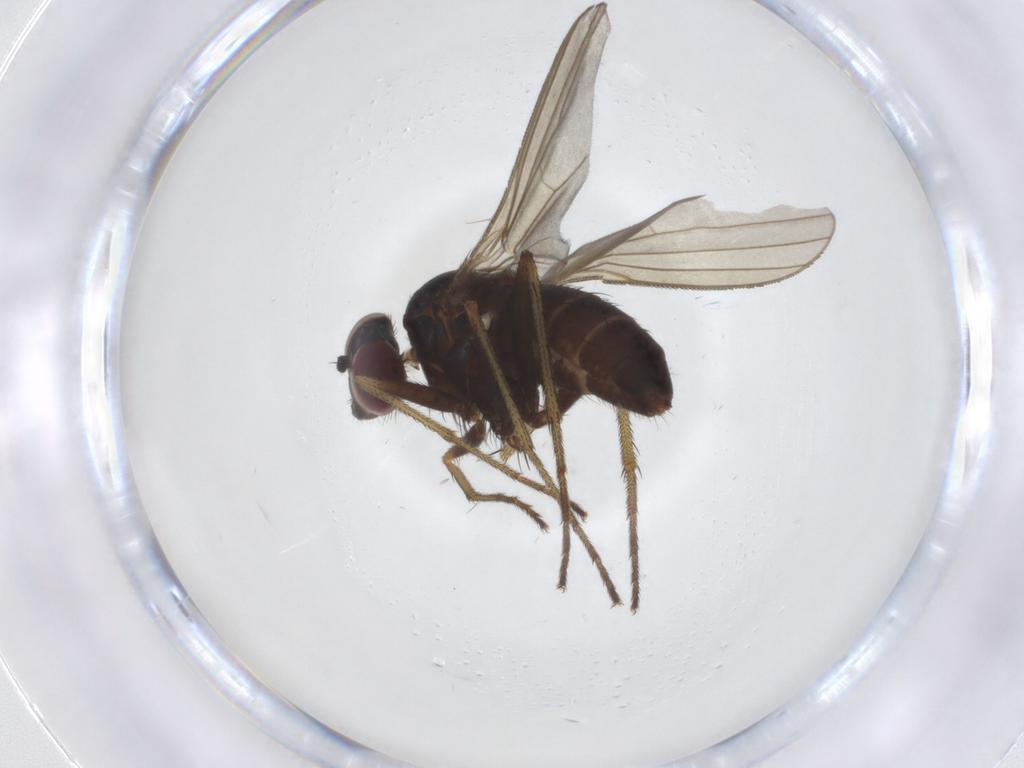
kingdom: Animalia
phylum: Arthropoda
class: Insecta
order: Diptera
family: Dolichopodidae
